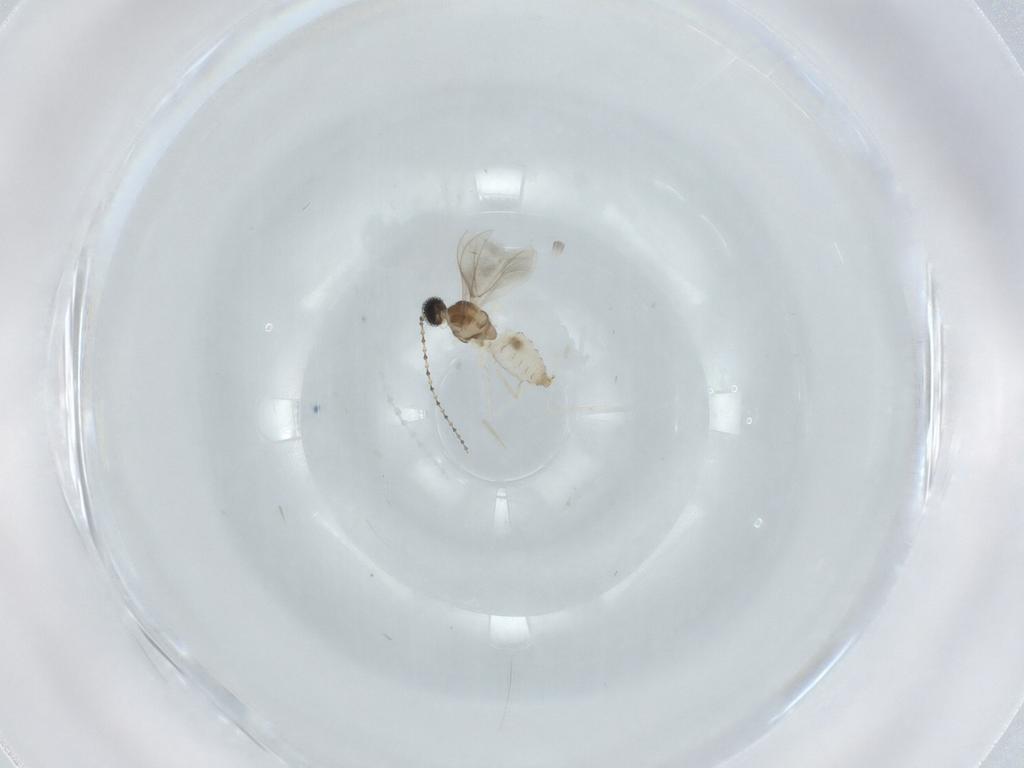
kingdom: Animalia
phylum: Arthropoda
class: Insecta
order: Diptera
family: Cecidomyiidae
